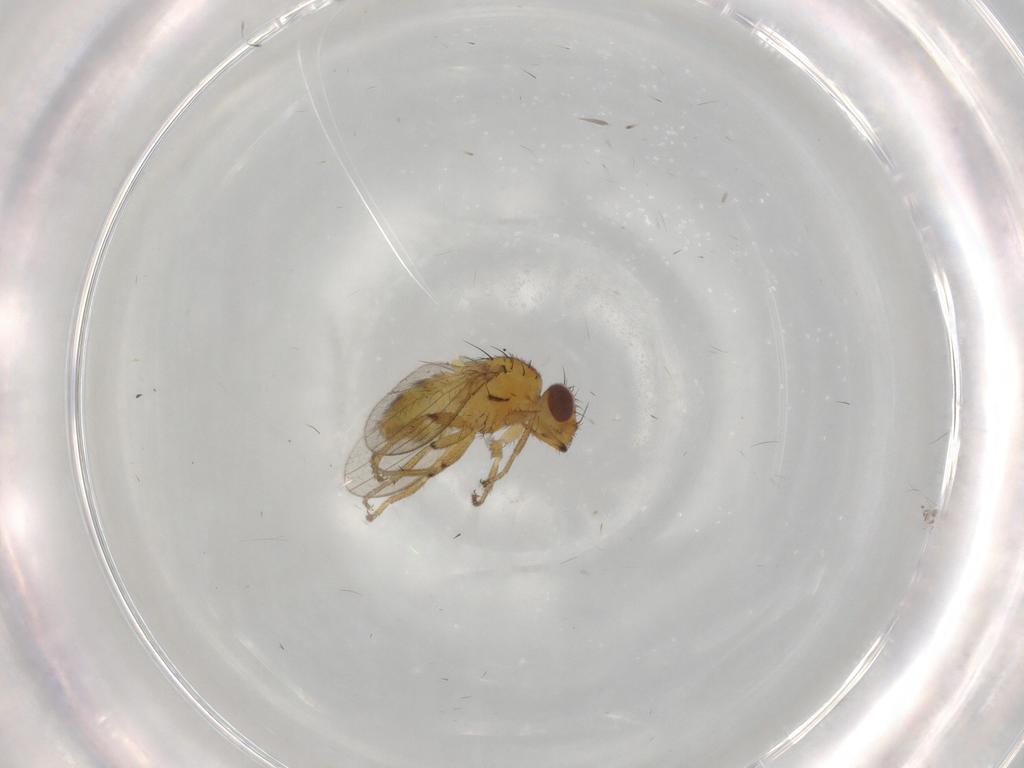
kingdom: Animalia
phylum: Arthropoda
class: Insecta
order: Diptera
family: Milichiidae
